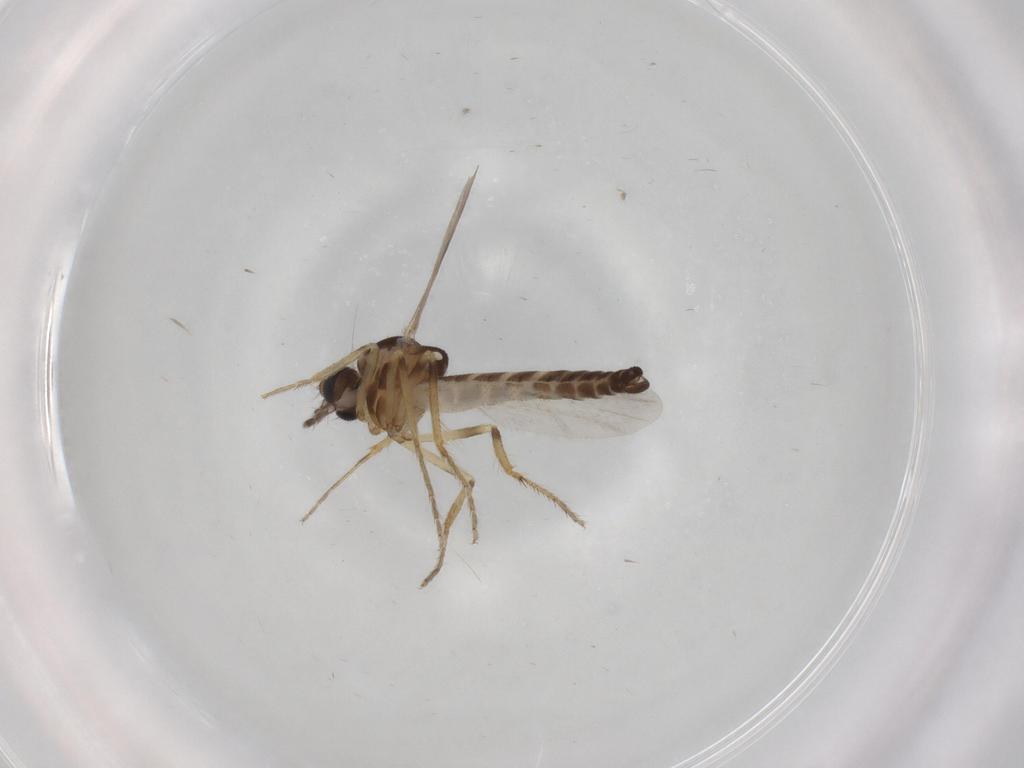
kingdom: Animalia
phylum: Arthropoda
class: Insecta
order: Diptera
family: Ceratopogonidae
